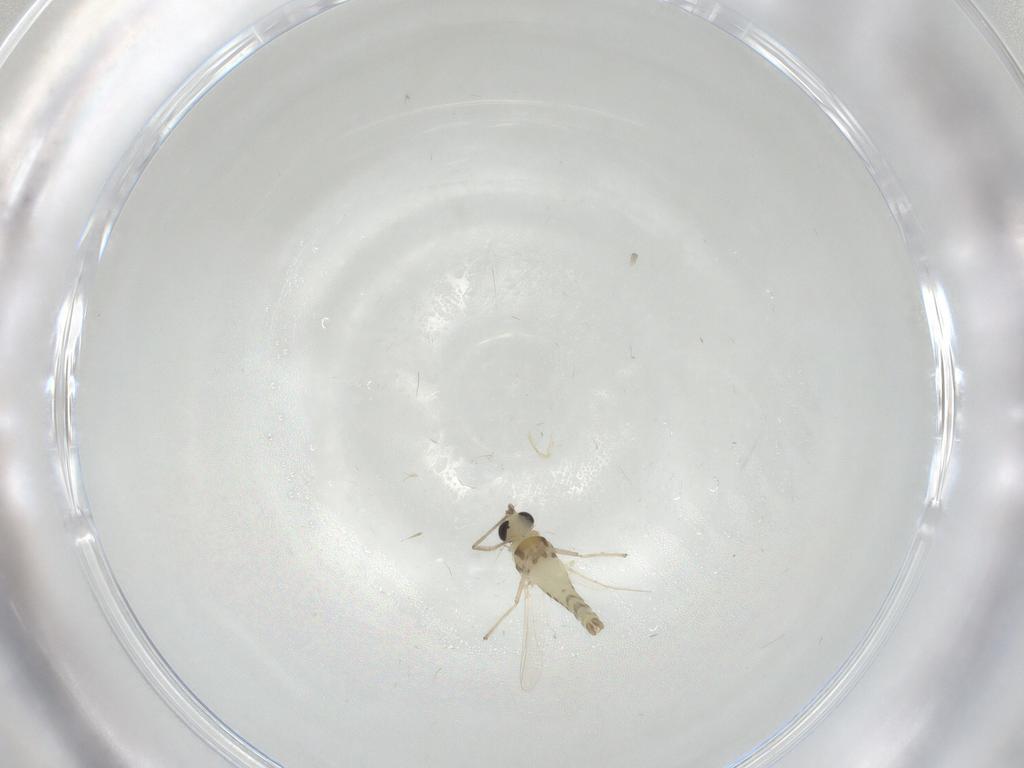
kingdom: Animalia
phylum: Arthropoda
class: Insecta
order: Diptera
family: Chironomidae
